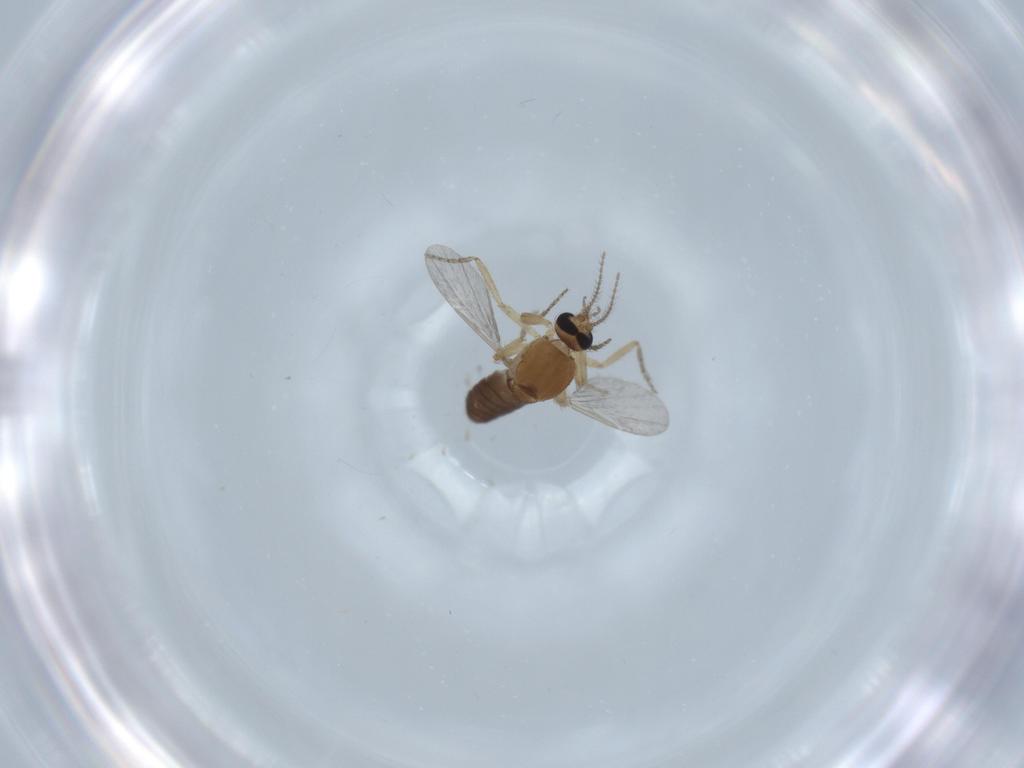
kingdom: Animalia
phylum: Arthropoda
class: Insecta
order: Diptera
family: Ceratopogonidae
